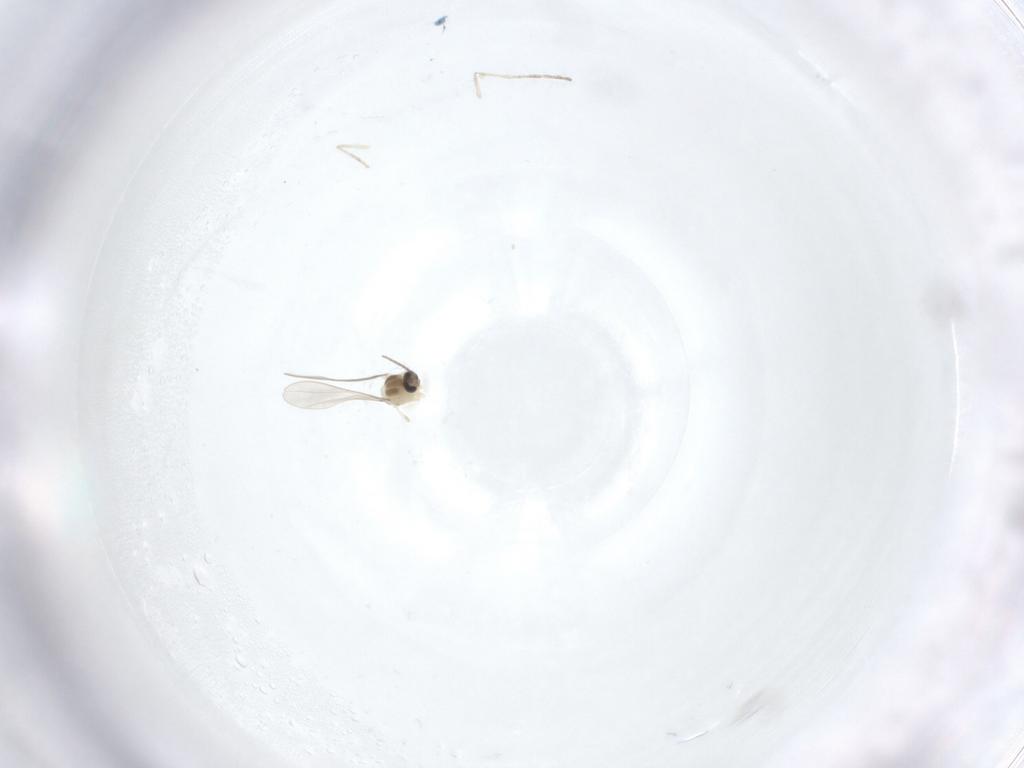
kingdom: Animalia
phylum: Arthropoda
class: Insecta
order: Diptera
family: Cecidomyiidae
